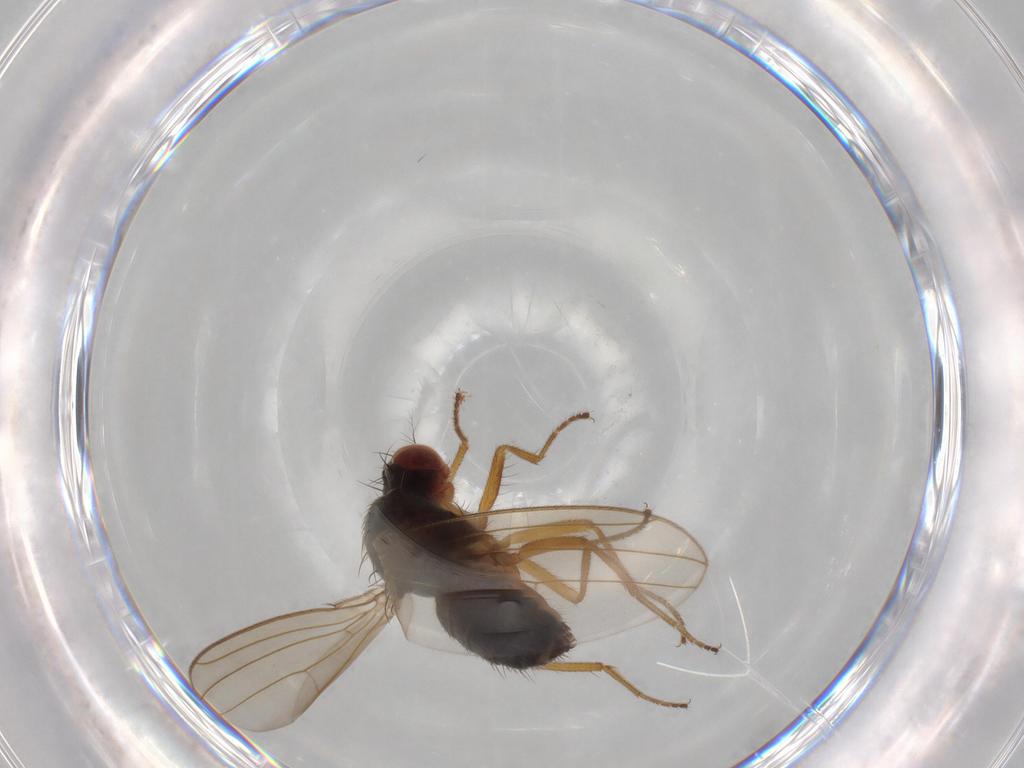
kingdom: Animalia
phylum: Arthropoda
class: Insecta
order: Diptera
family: Drosophilidae
